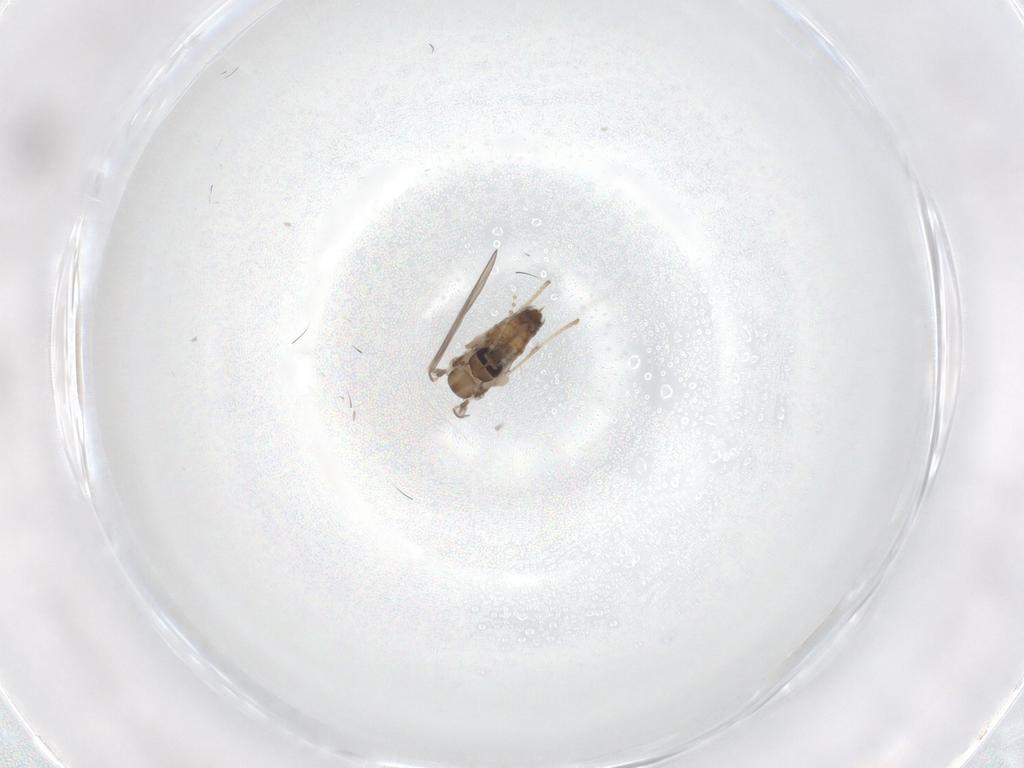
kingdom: Animalia
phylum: Arthropoda
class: Insecta
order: Diptera
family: Psychodidae
